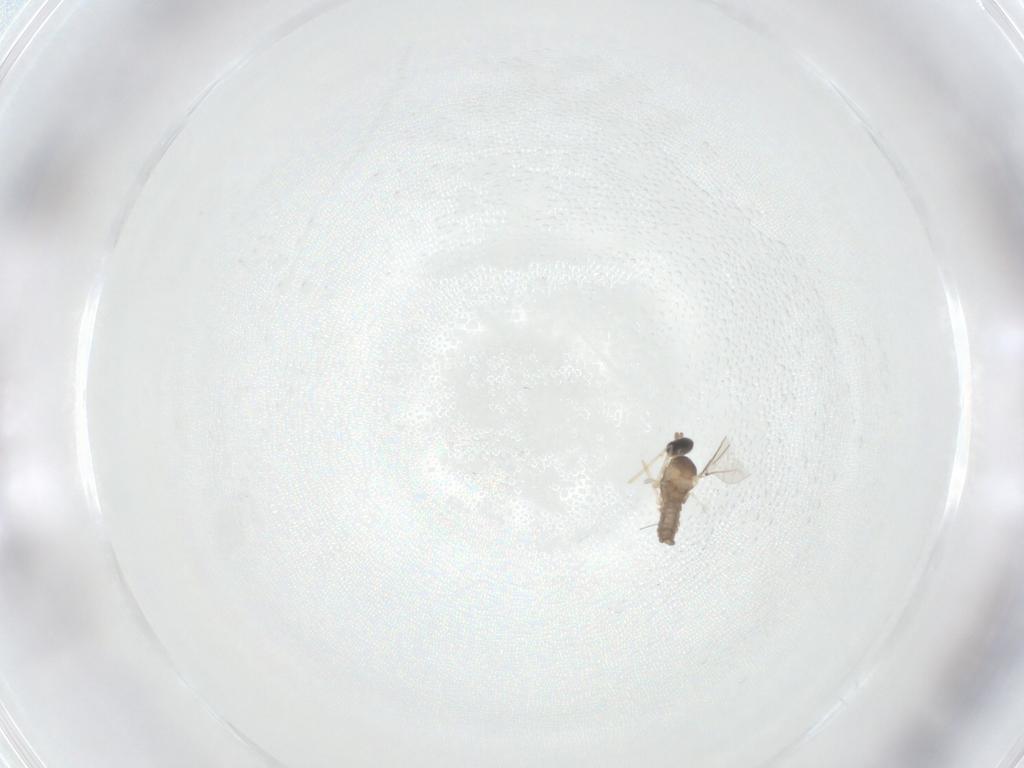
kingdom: Animalia
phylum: Arthropoda
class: Insecta
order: Diptera
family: Cecidomyiidae
